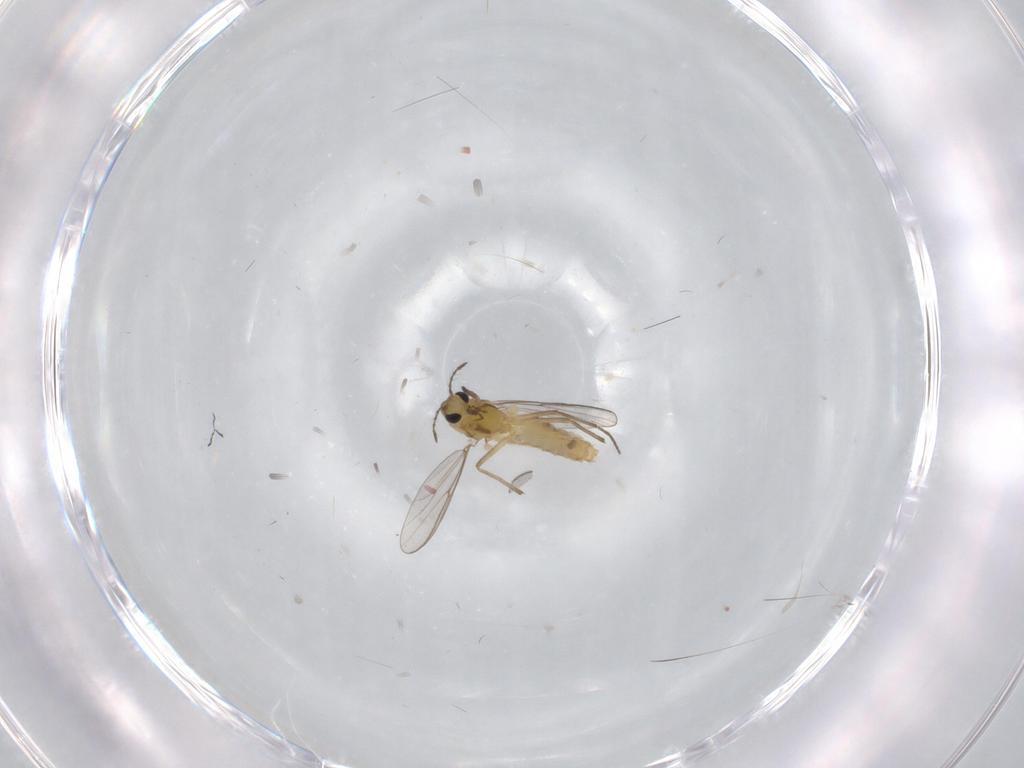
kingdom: Animalia
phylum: Arthropoda
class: Insecta
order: Diptera
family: Chironomidae
